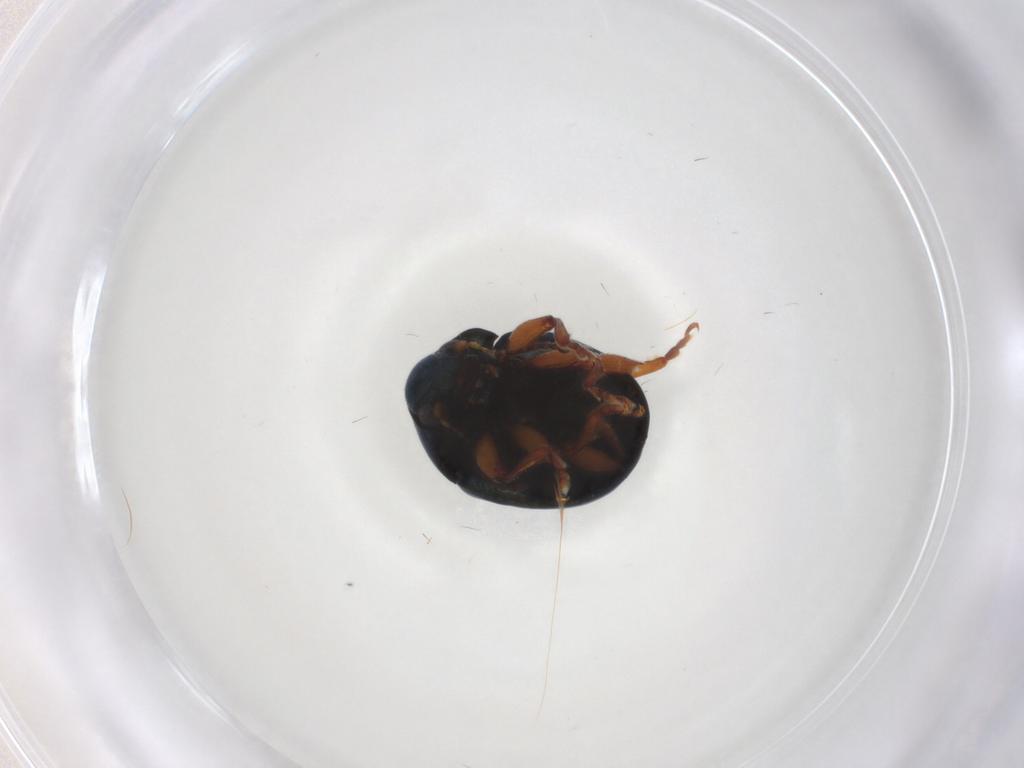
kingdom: Animalia
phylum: Arthropoda
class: Insecta
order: Coleoptera
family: Chrysomelidae
